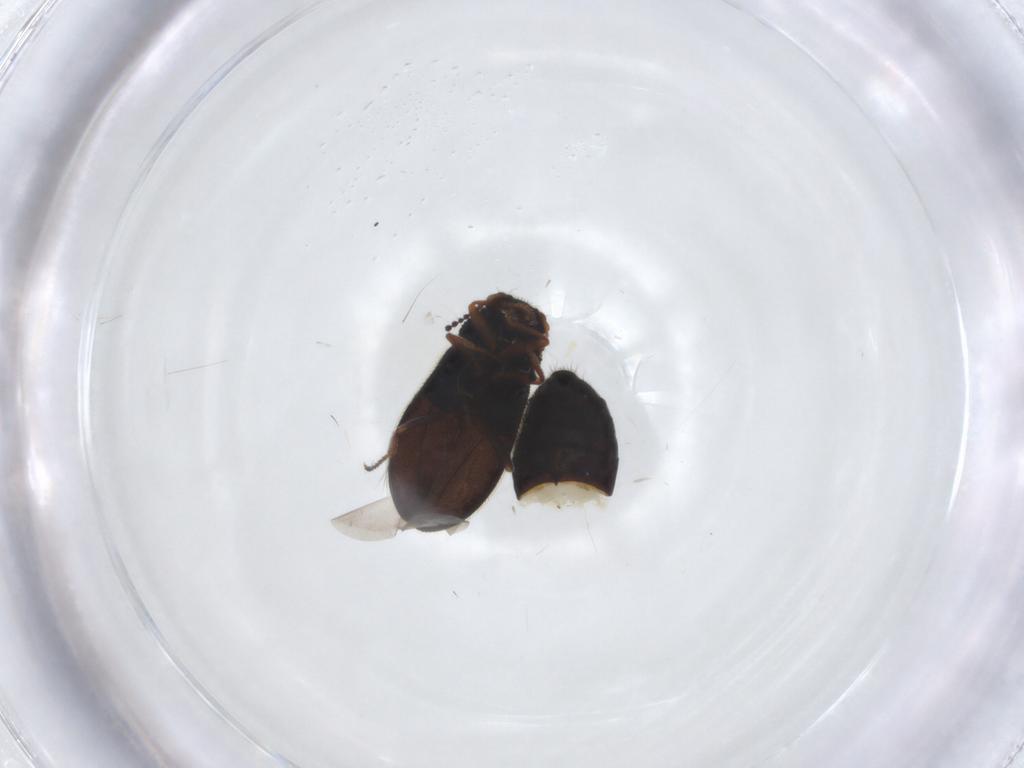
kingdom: Animalia
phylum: Arthropoda
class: Insecta
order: Coleoptera
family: Melyridae
